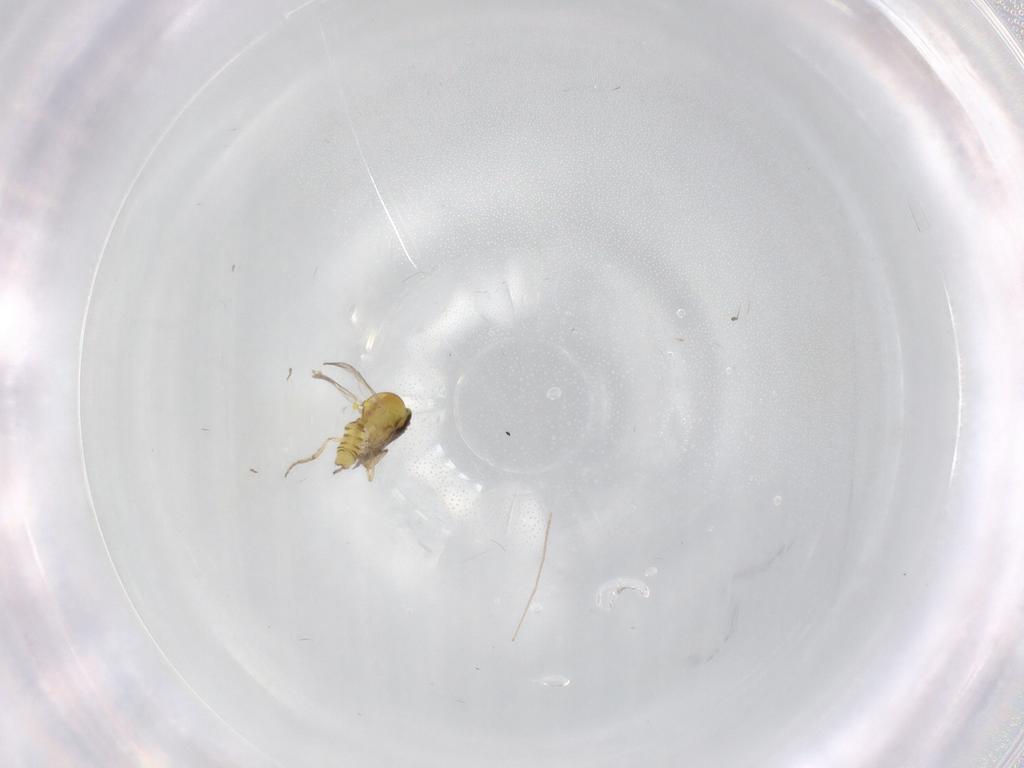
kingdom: Animalia
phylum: Arthropoda
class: Insecta
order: Diptera
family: Ceratopogonidae
